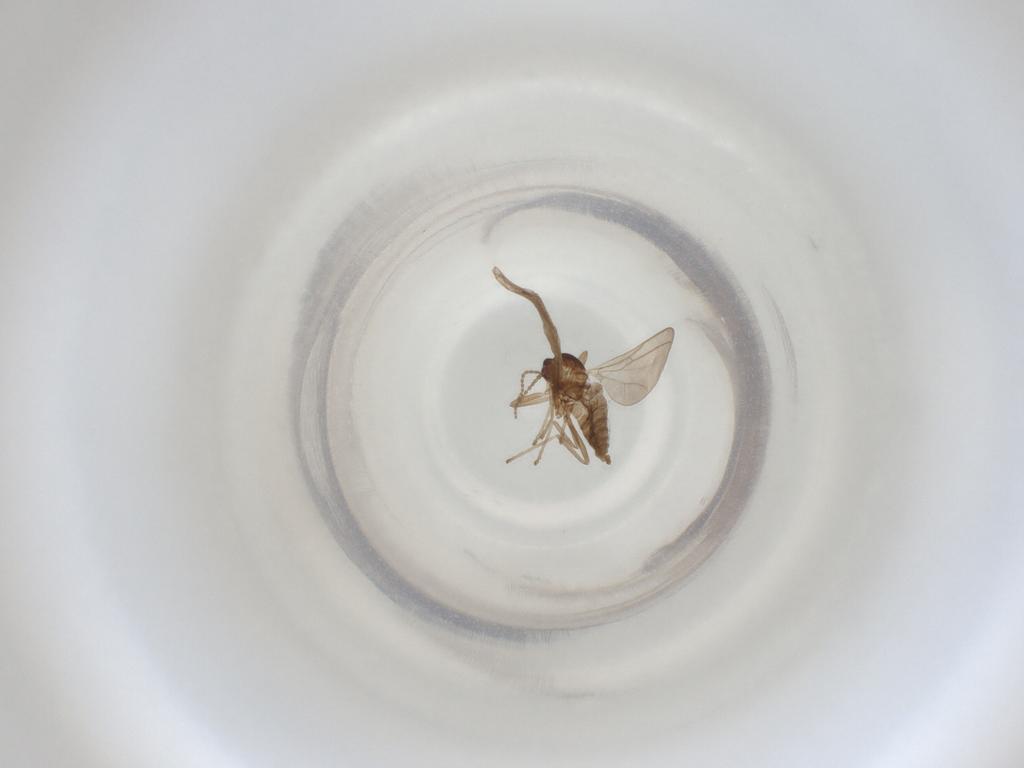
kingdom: Animalia
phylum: Arthropoda
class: Insecta
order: Diptera
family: Cecidomyiidae
